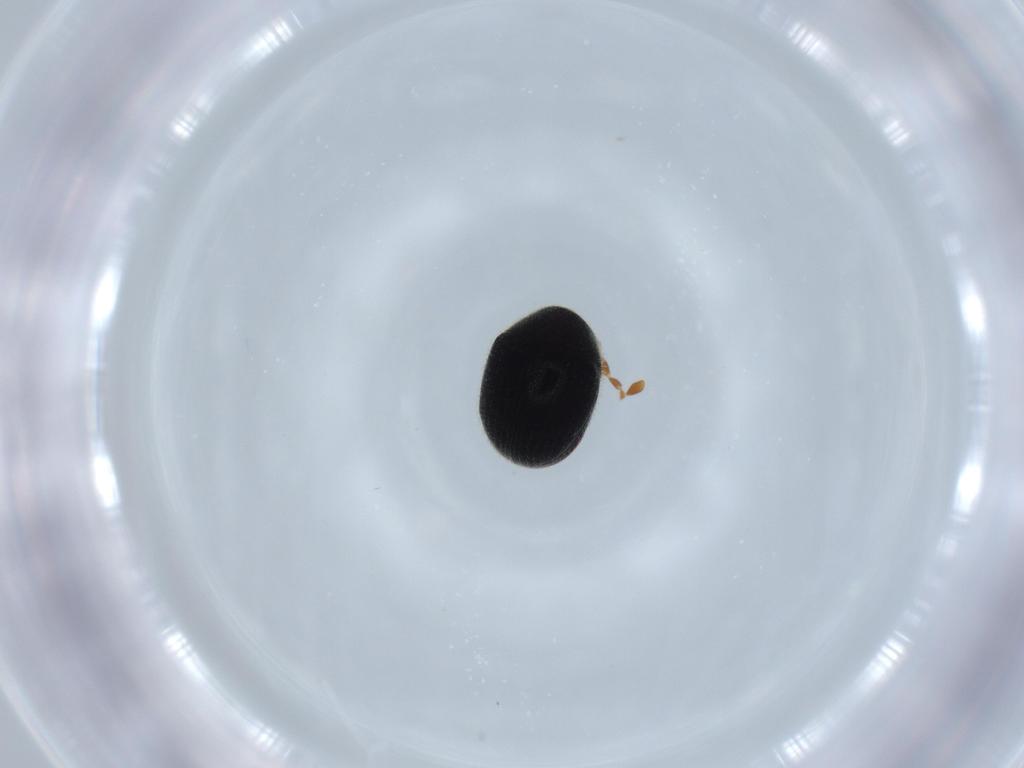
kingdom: Animalia
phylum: Arthropoda
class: Insecta
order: Coleoptera
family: Ptinidae
